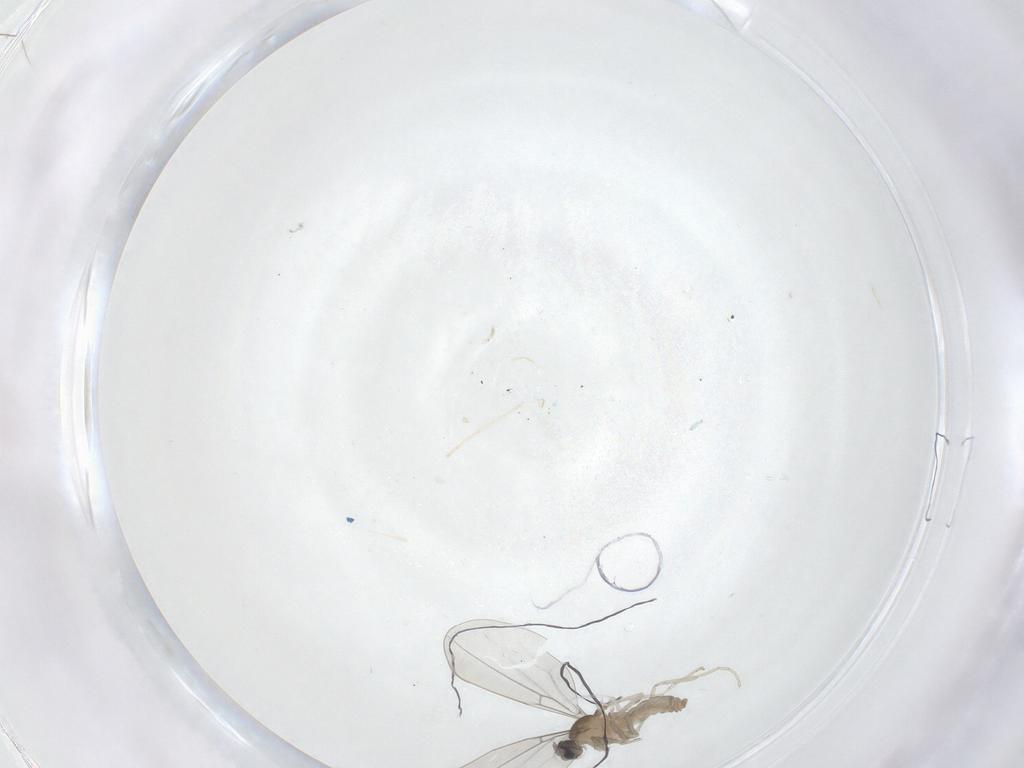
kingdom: Animalia
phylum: Arthropoda
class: Insecta
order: Diptera
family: Cecidomyiidae
